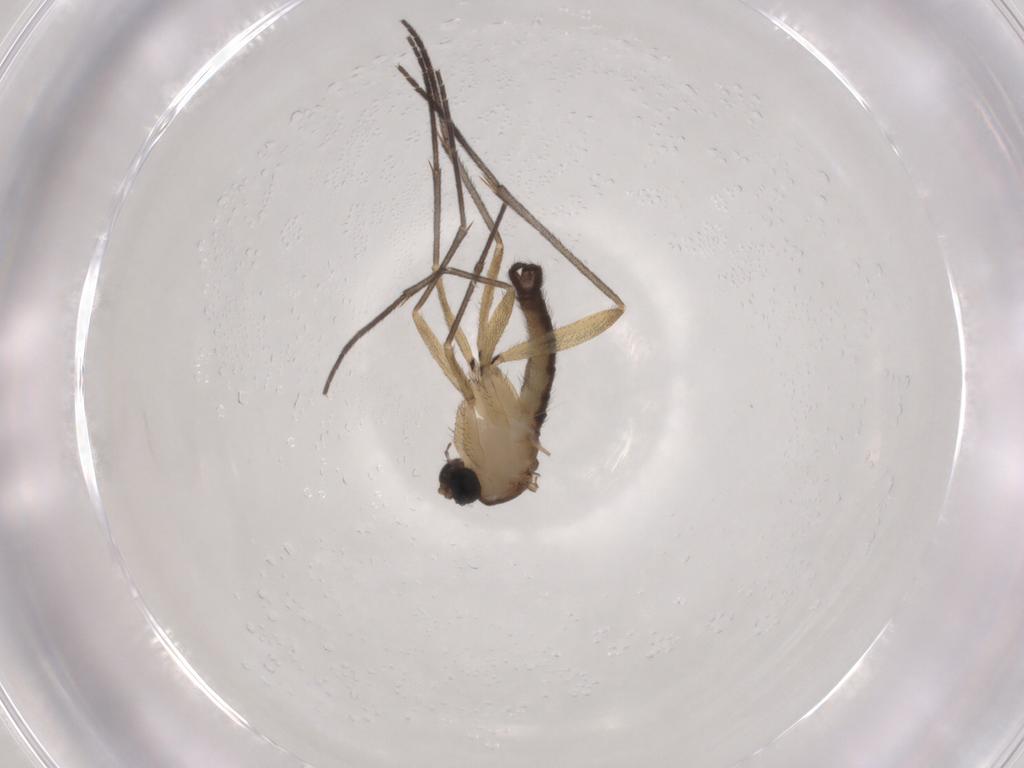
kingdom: Animalia
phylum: Arthropoda
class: Insecta
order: Diptera
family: Sciaridae
